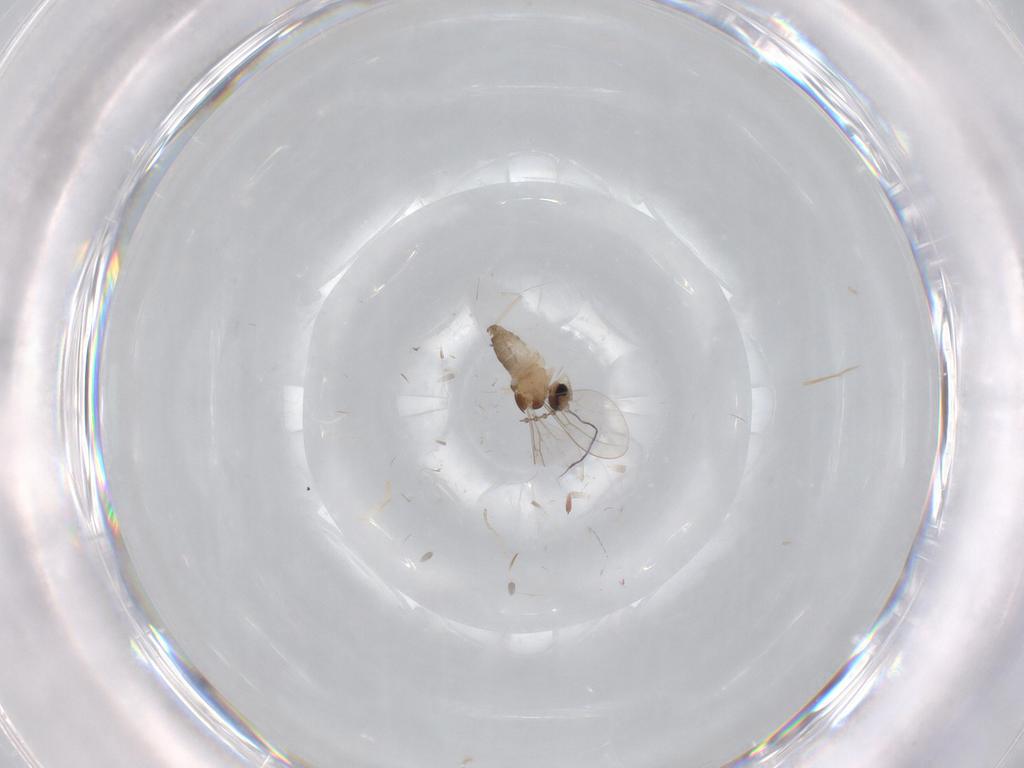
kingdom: Animalia
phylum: Arthropoda
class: Insecta
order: Diptera
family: Cecidomyiidae
